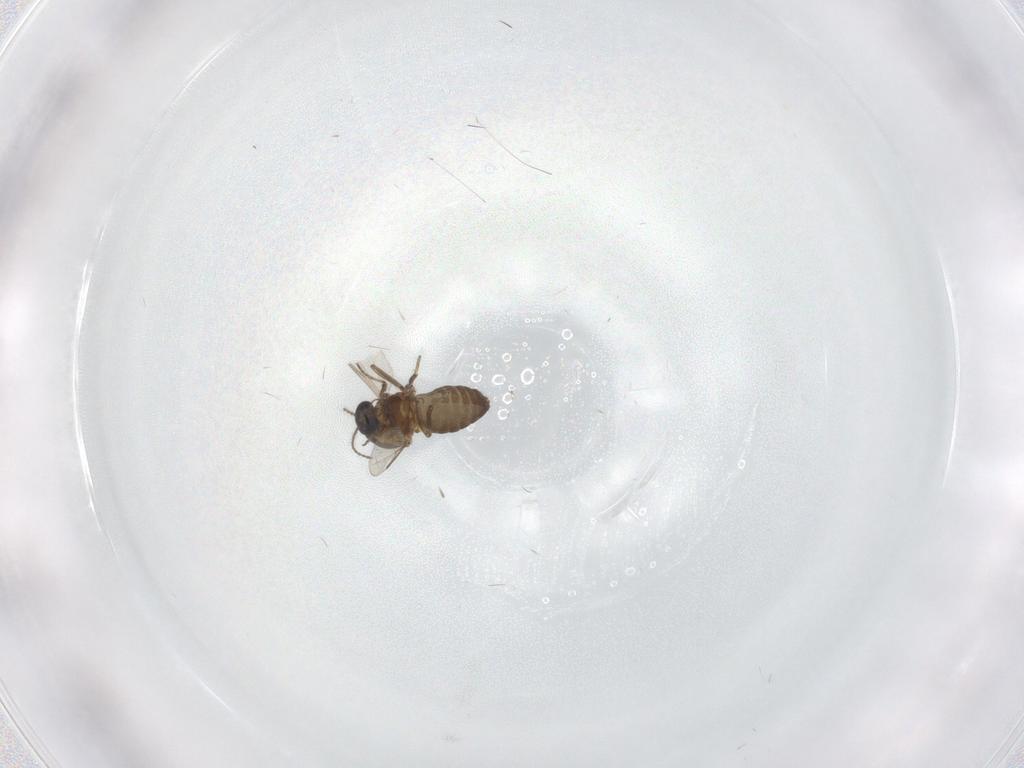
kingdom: Animalia
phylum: Arthropoda
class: Insecta
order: Diptera
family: Ceratopogonidae
